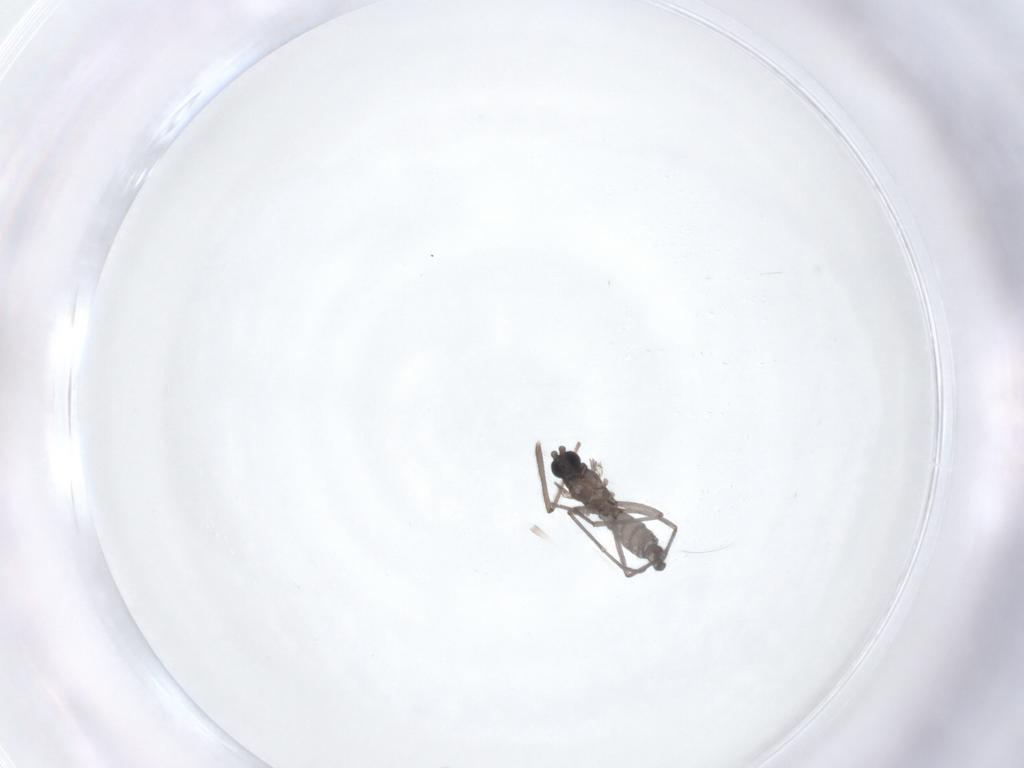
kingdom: Animalia
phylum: Arthropoda
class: Insecta
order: Diptera
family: Sciaridae
